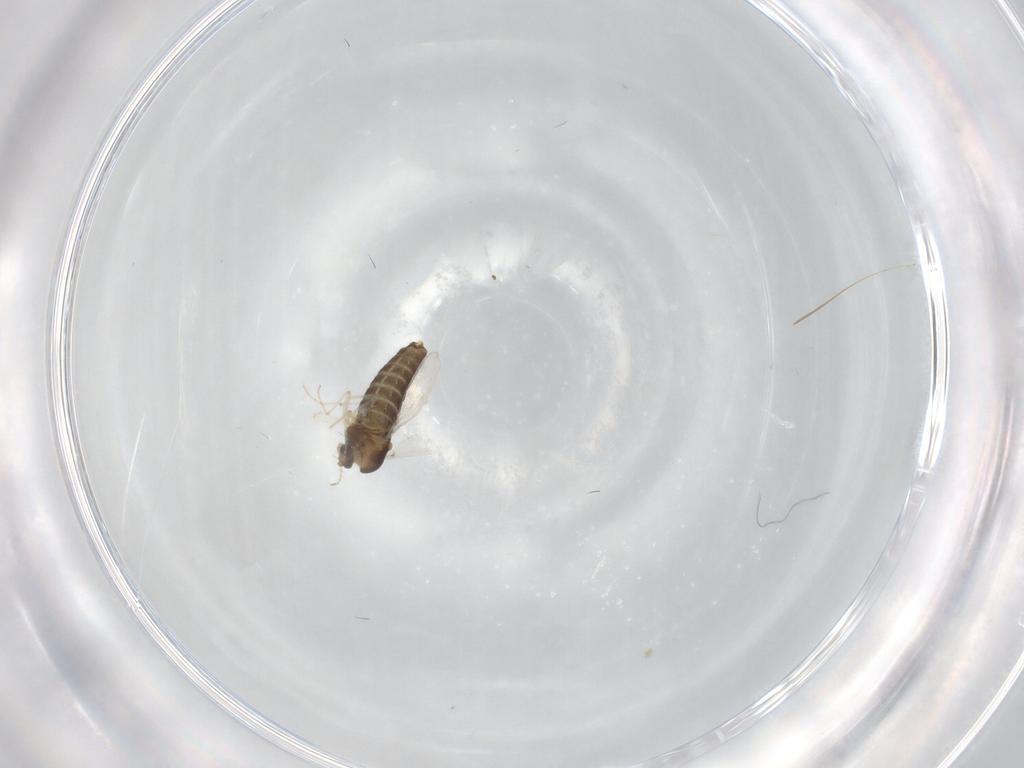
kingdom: Animalia
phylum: Arthropoda
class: Insecta
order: Diptera
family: Chironomidae
